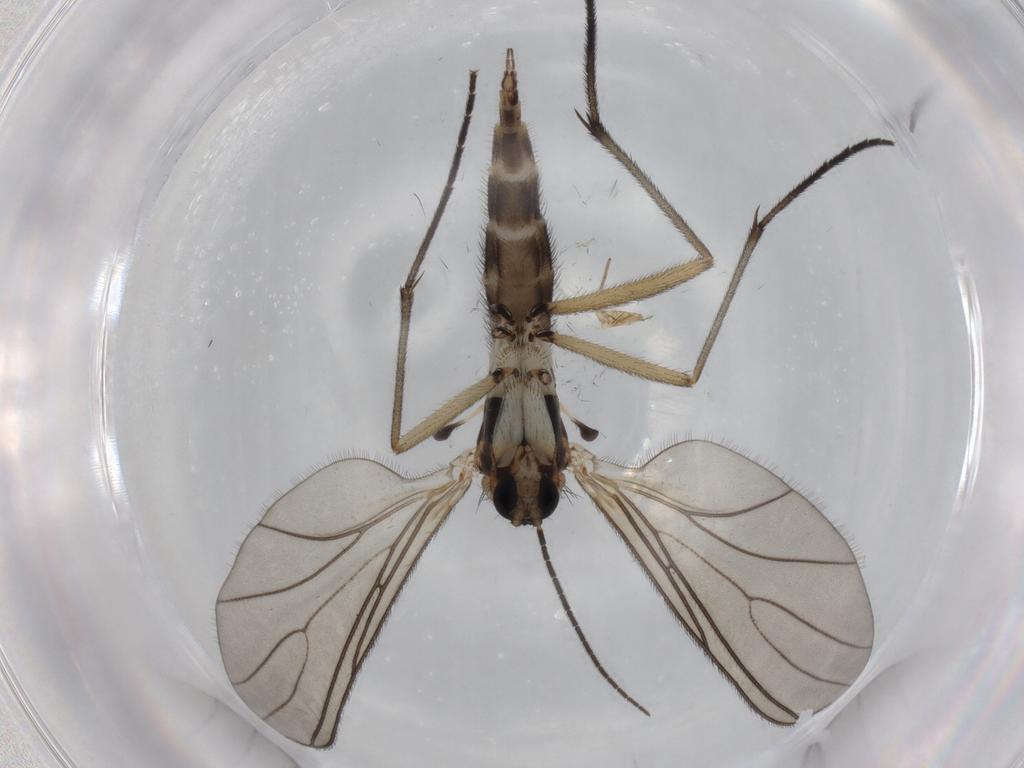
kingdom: Animalia
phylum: Arthropoda
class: Insecta
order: Diptera
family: Sciaridae
